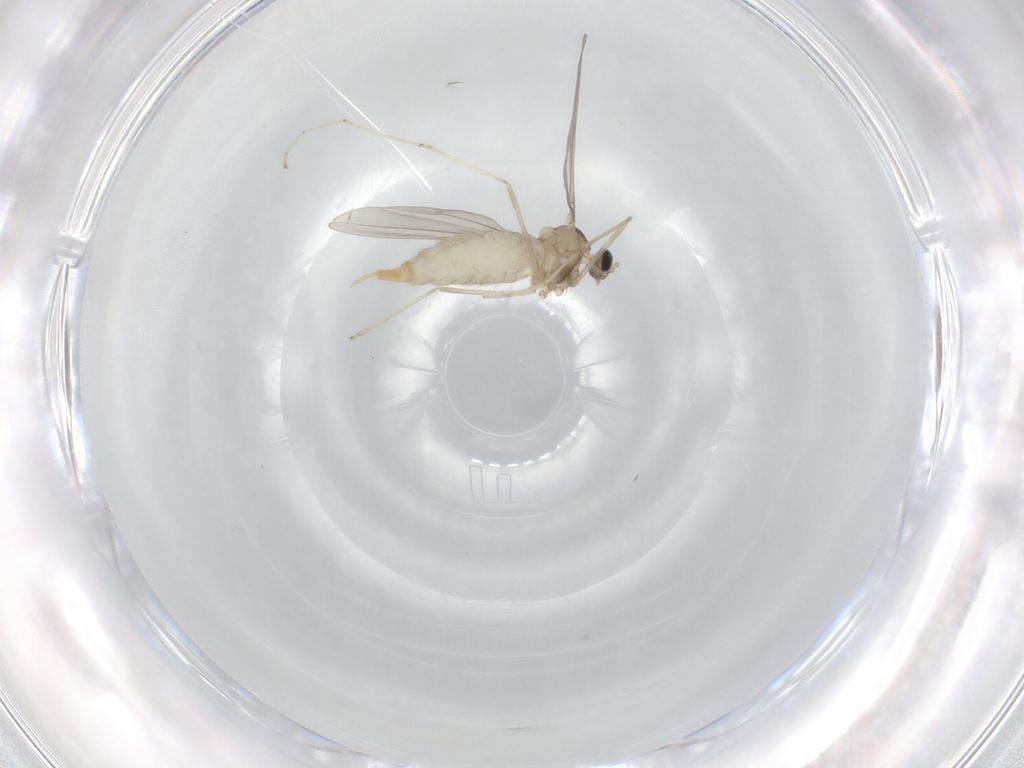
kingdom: Animalia
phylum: Arthropoda
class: Insecta
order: Diptera
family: Cecidomyiidae
